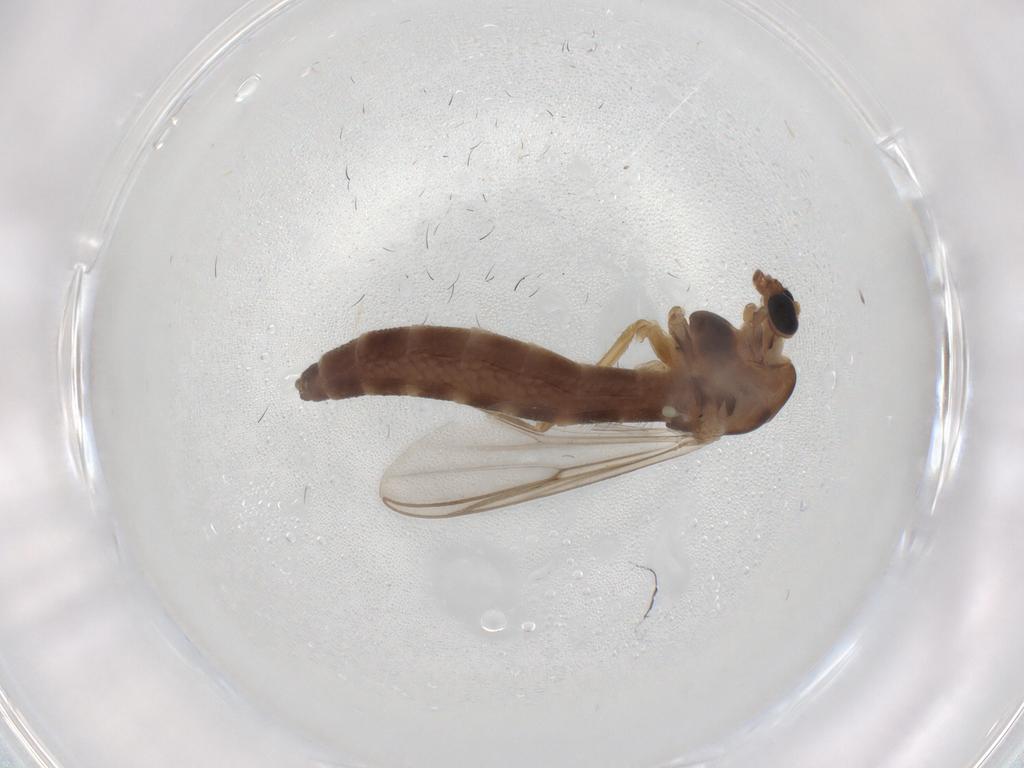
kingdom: Animalia
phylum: Arthropoda
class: Insecta
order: Diptera
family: Chironomidae
